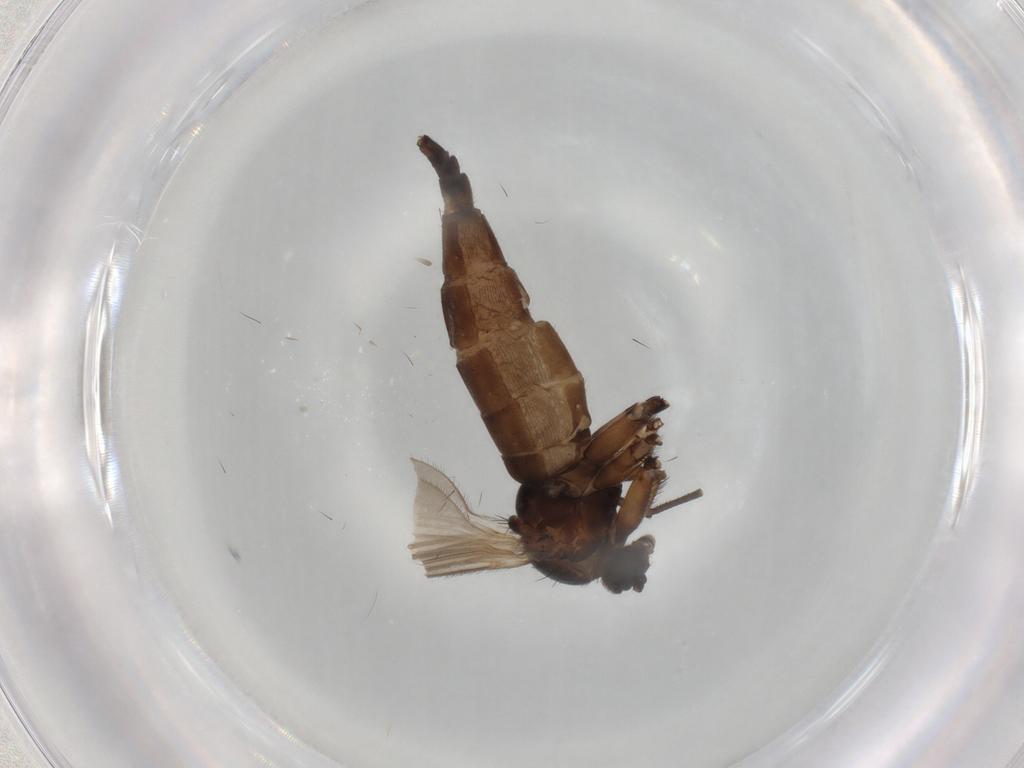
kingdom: Animalia
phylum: Arthropoda
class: Insecta
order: Diptera
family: Sciaridae
